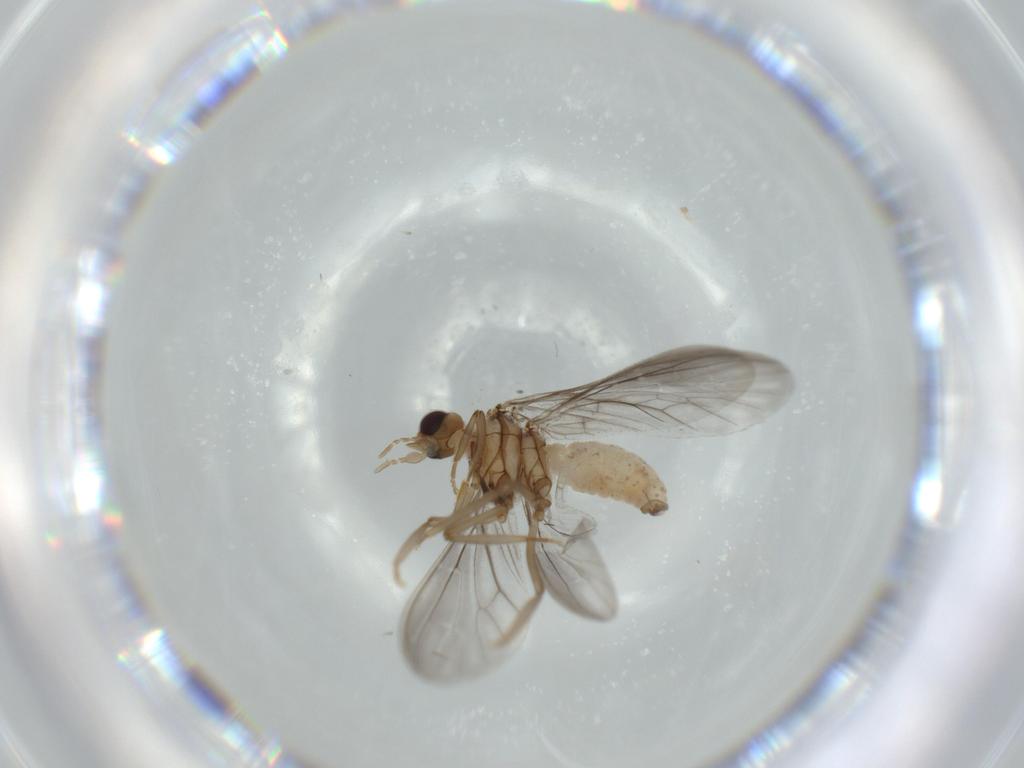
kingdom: Animalia
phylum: Arthropoda
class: Insecta
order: Neuroptera
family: Coniopterygidae
